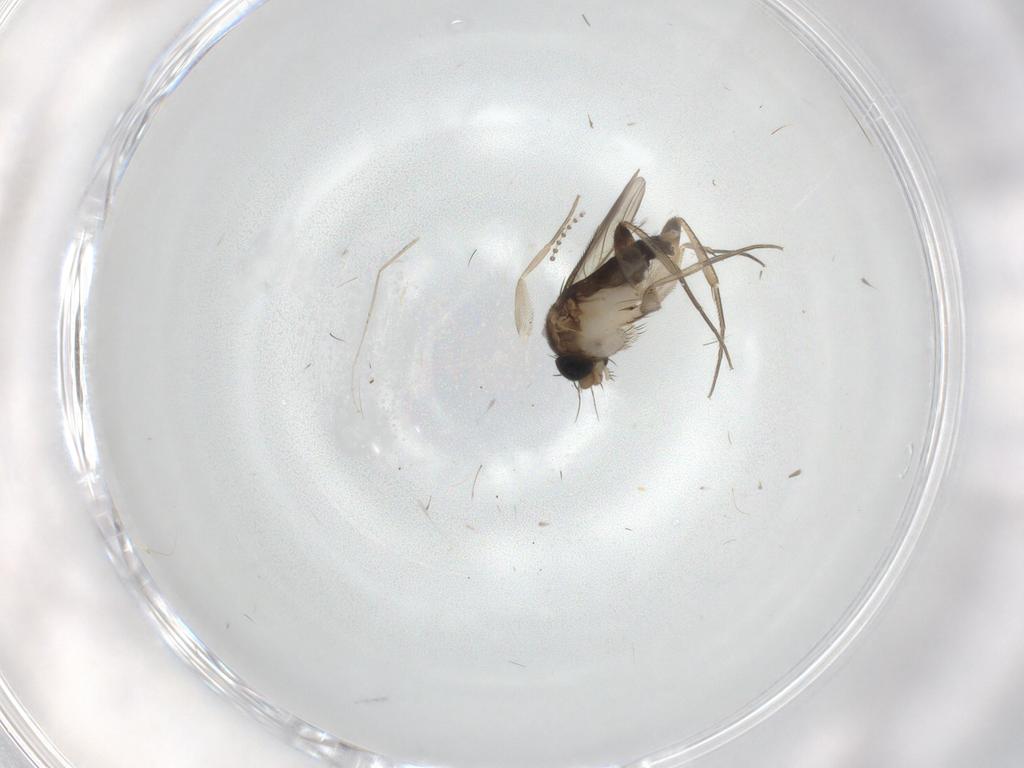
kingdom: Animalia
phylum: Arthropoda
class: Insecta
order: Diptera
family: Phoridae
